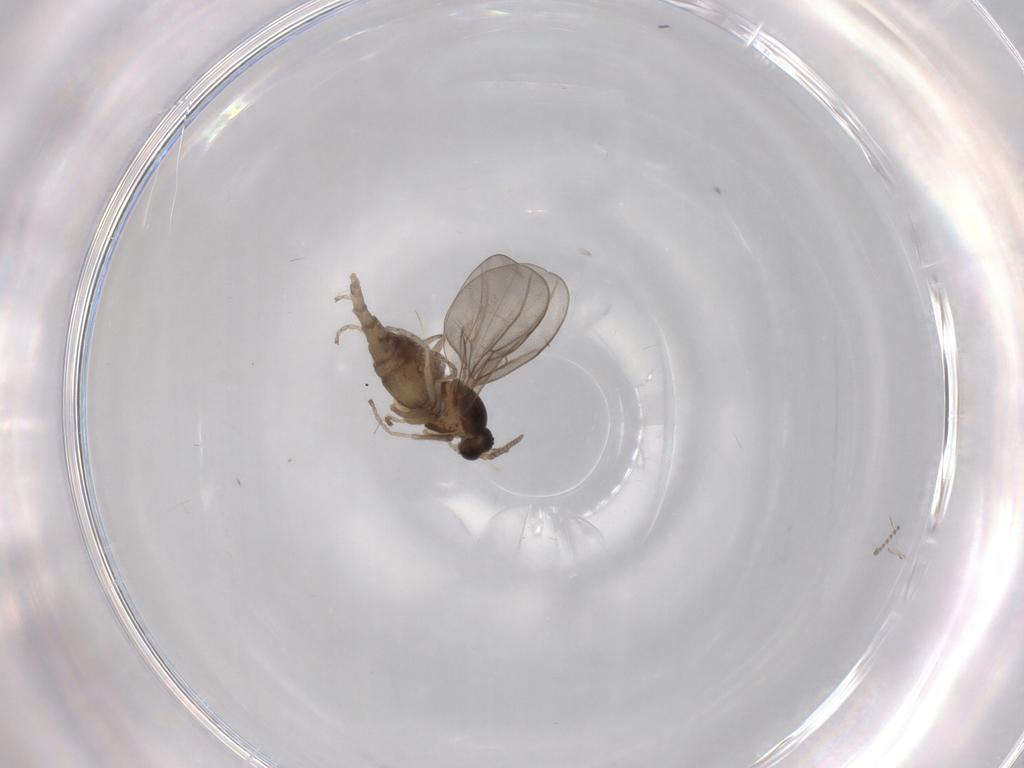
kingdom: Animalia
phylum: Arthropoda
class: Insecta
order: Diptera
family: Cecidomyiidae
